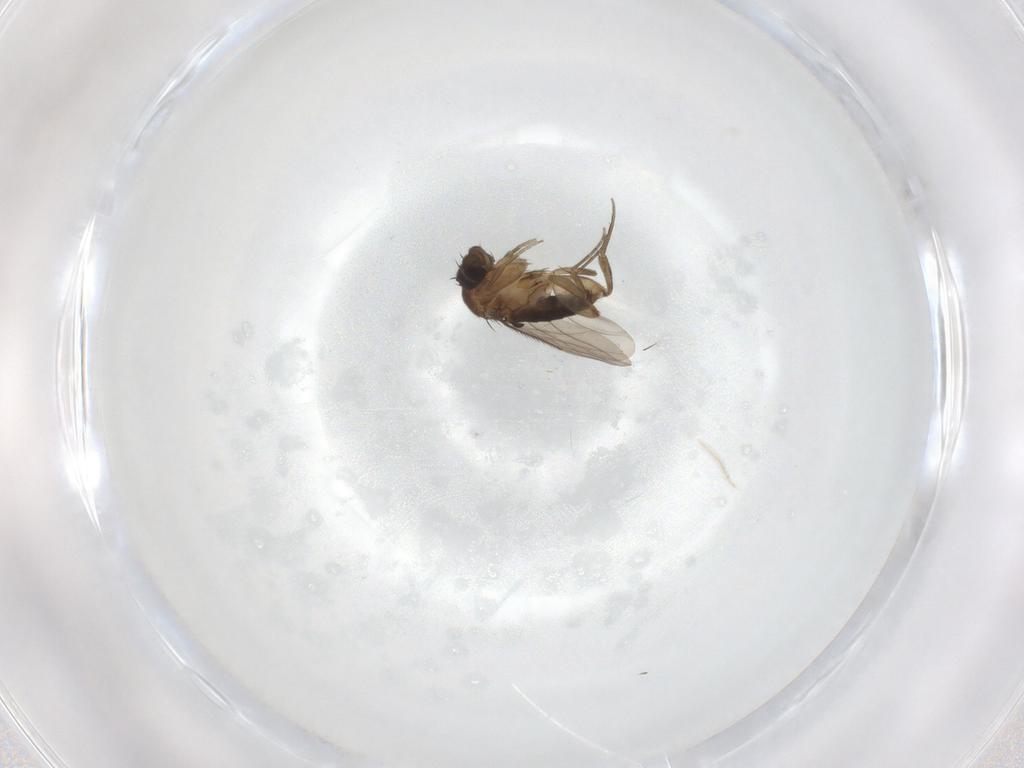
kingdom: Animalia
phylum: Arthropoda
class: Insecta
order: Diptera
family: Phoridae
